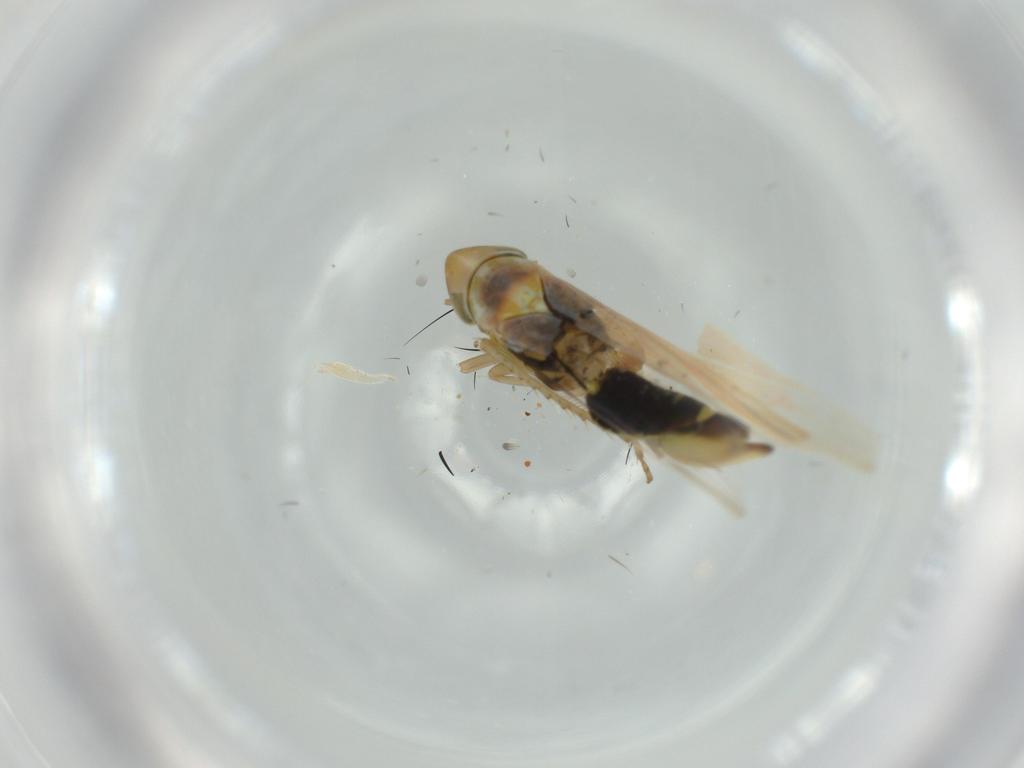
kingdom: Animalia
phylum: Arthropoda
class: Insecta
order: Hemiptera
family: Cicadellidae
